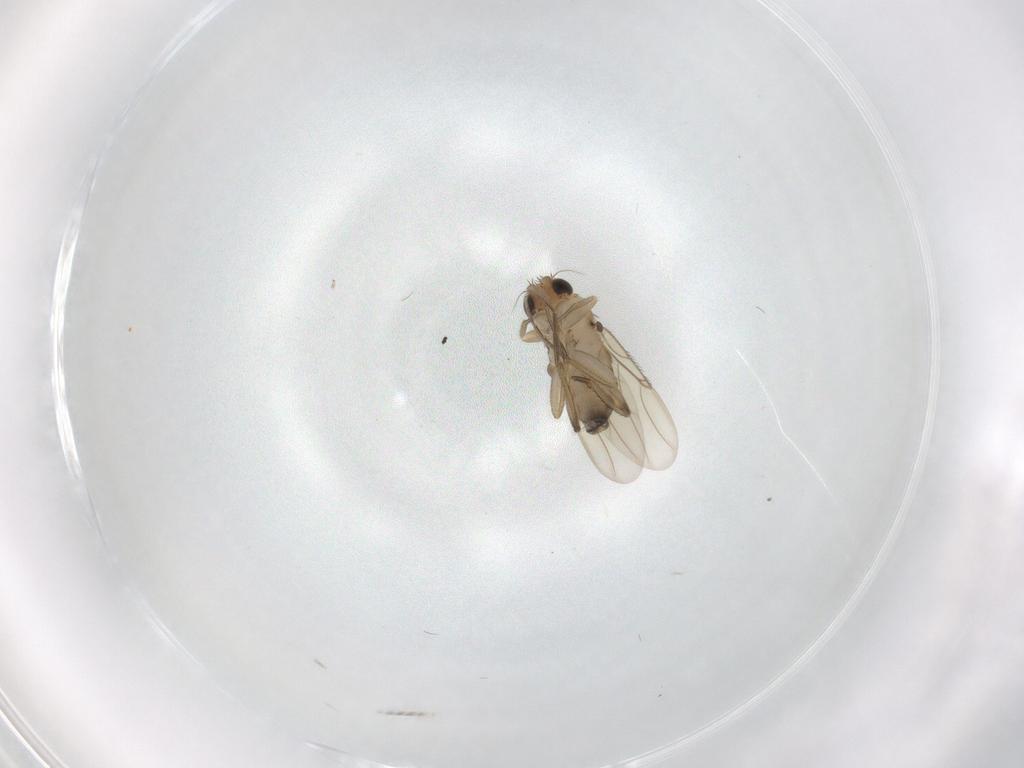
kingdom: Animalia
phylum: Arthropoda
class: Insecta
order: Diptera
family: Phoridae
